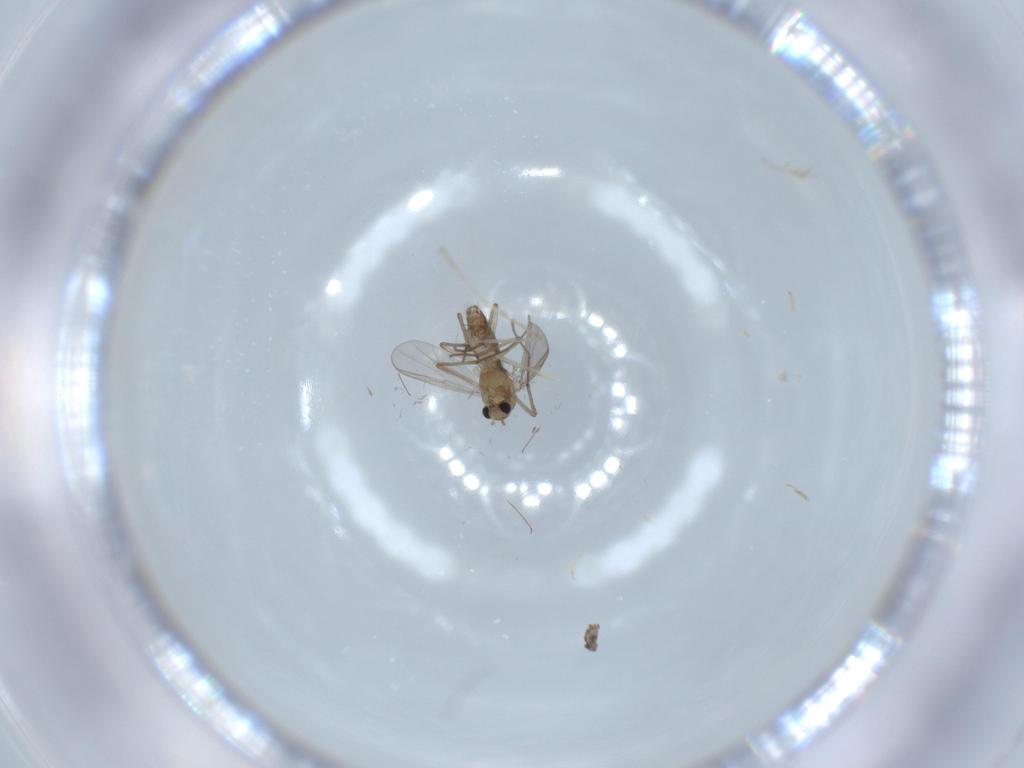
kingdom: Animalia
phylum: Arthropoda
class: Insecta
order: Diptera
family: Chironomidae
